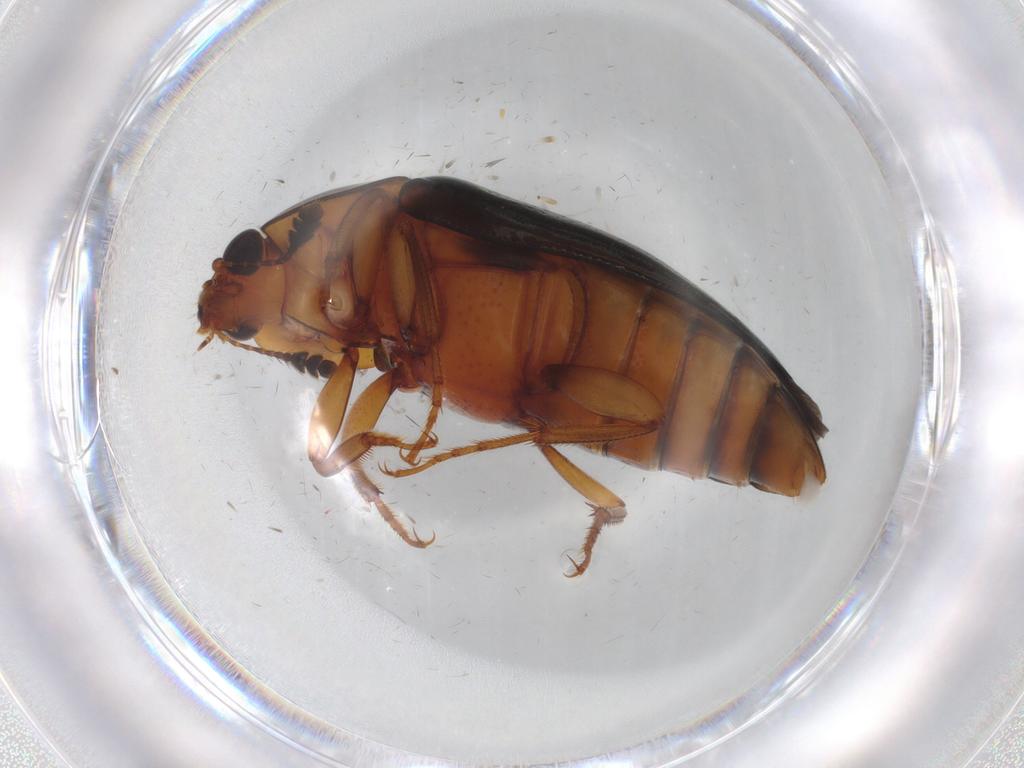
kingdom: Animalia
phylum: Arthropoda
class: Insecta
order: Coleoptera
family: Nitidulidae
